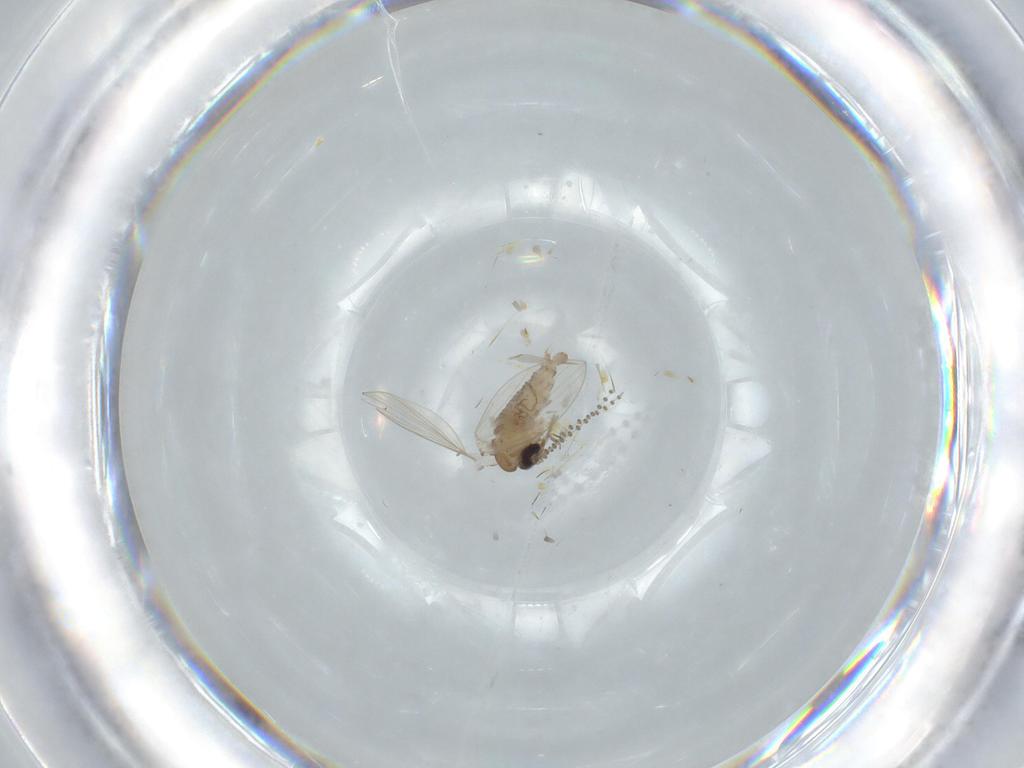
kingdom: Animalia
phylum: Arthropoda
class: Insecta
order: Diptera
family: Psychodidae
